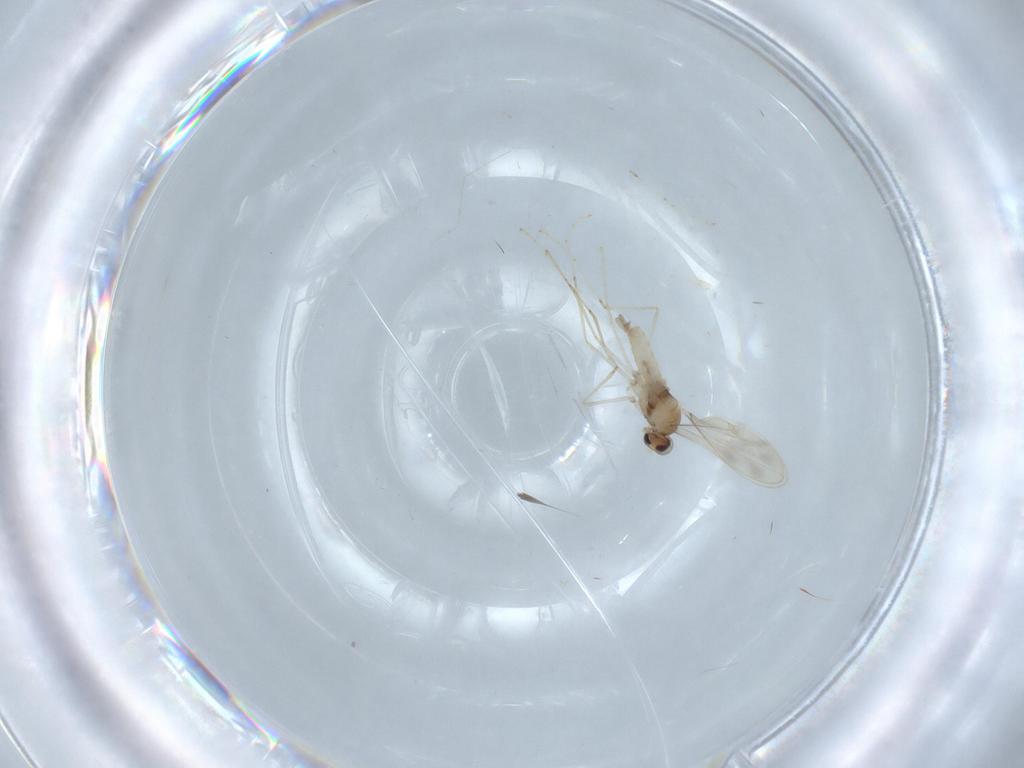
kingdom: Animalia
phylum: Arthropoda
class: Insecta
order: Diptera
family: Cecidomyiidae
